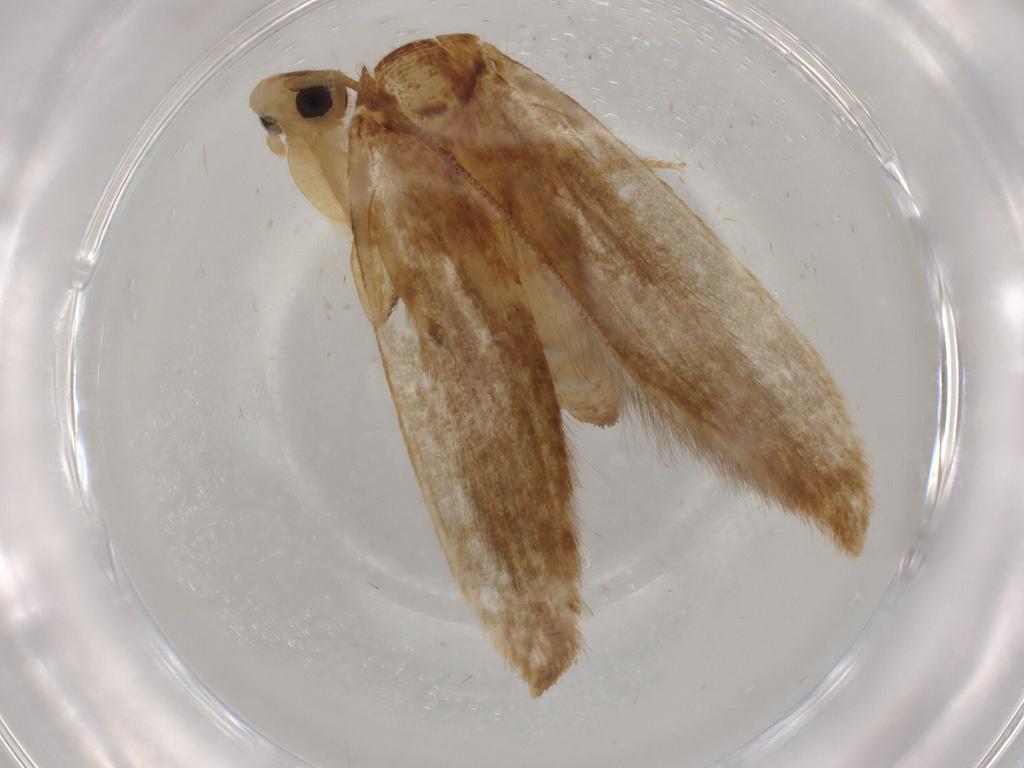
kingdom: Animalia
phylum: Arthropoda
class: Insecta
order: Lepidoptera
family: Tineidae
